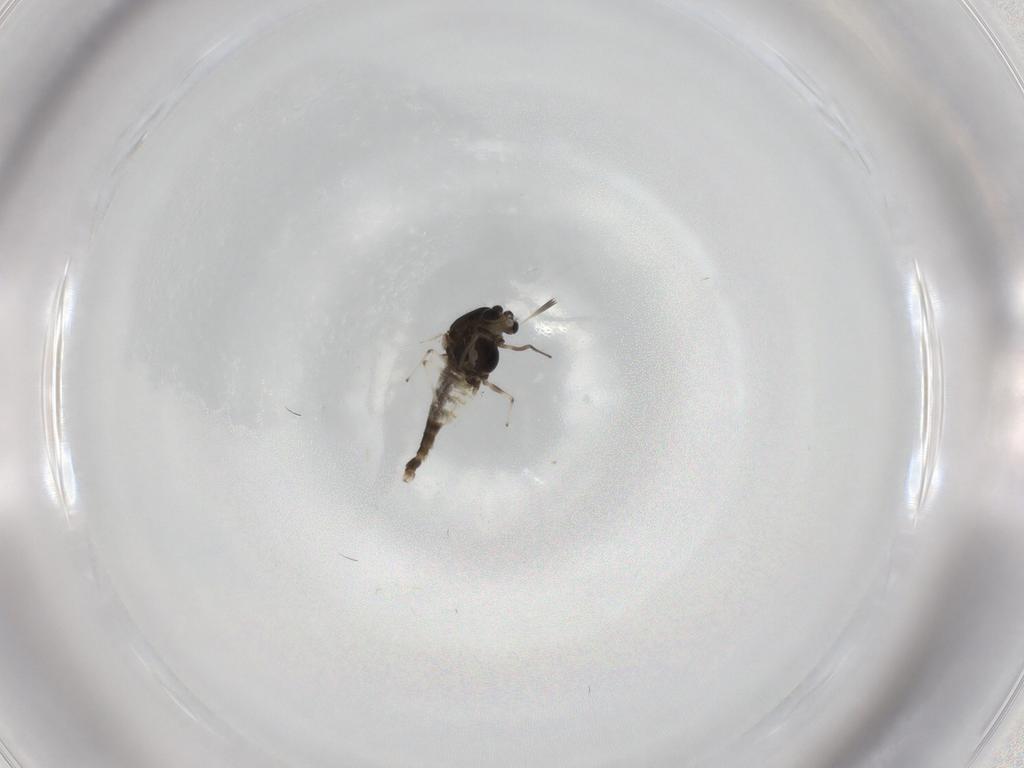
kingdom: Animalia
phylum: Arthropoda
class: Insecta
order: Diptera
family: Chironomidae
